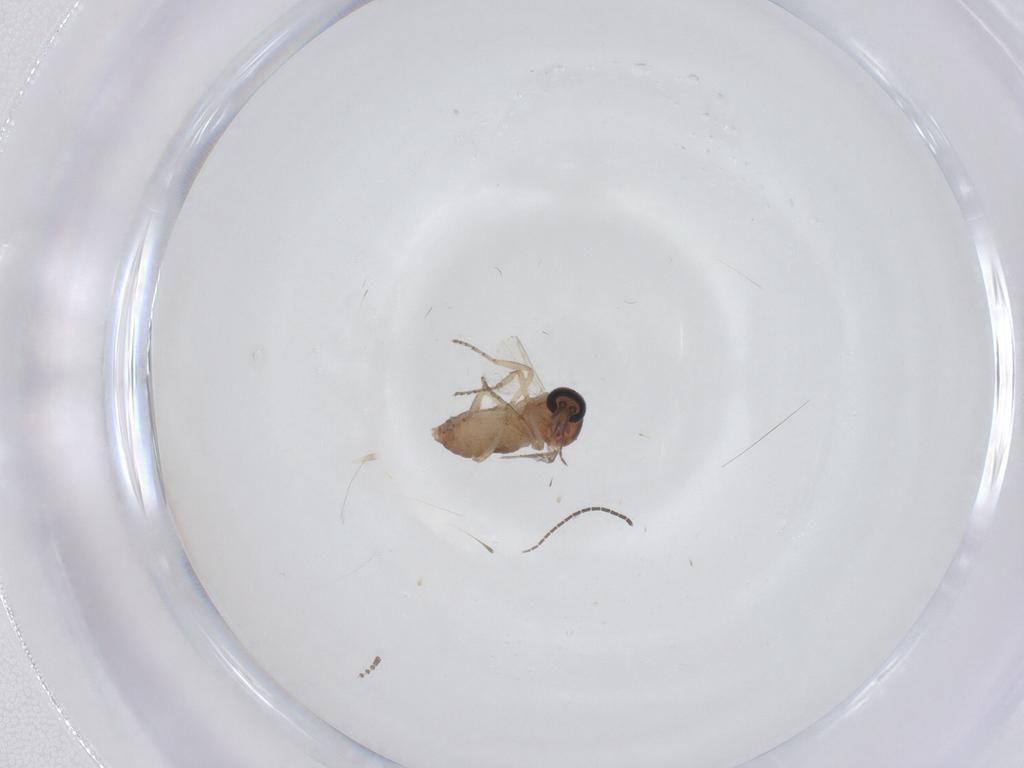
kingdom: Animalia
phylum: Arthropoda
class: Insecta
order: Diptera
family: Ceratopogonidae
